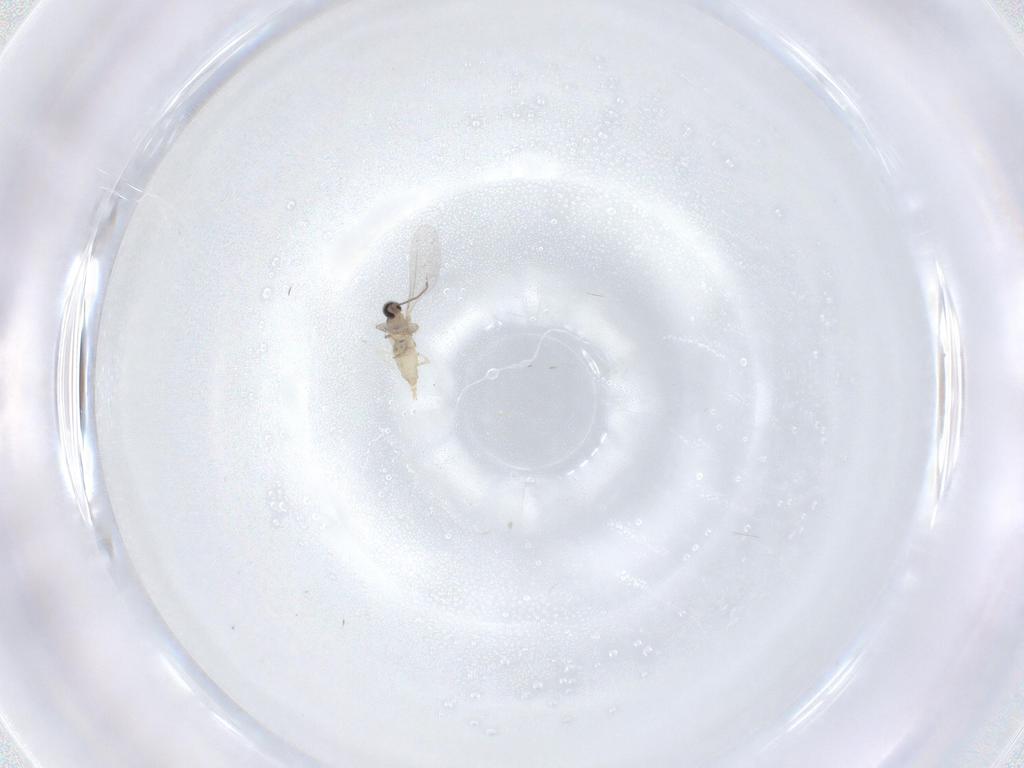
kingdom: Animalia
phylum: Arthropoda
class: Insecta
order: Diptera
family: Cecidomyiidae
